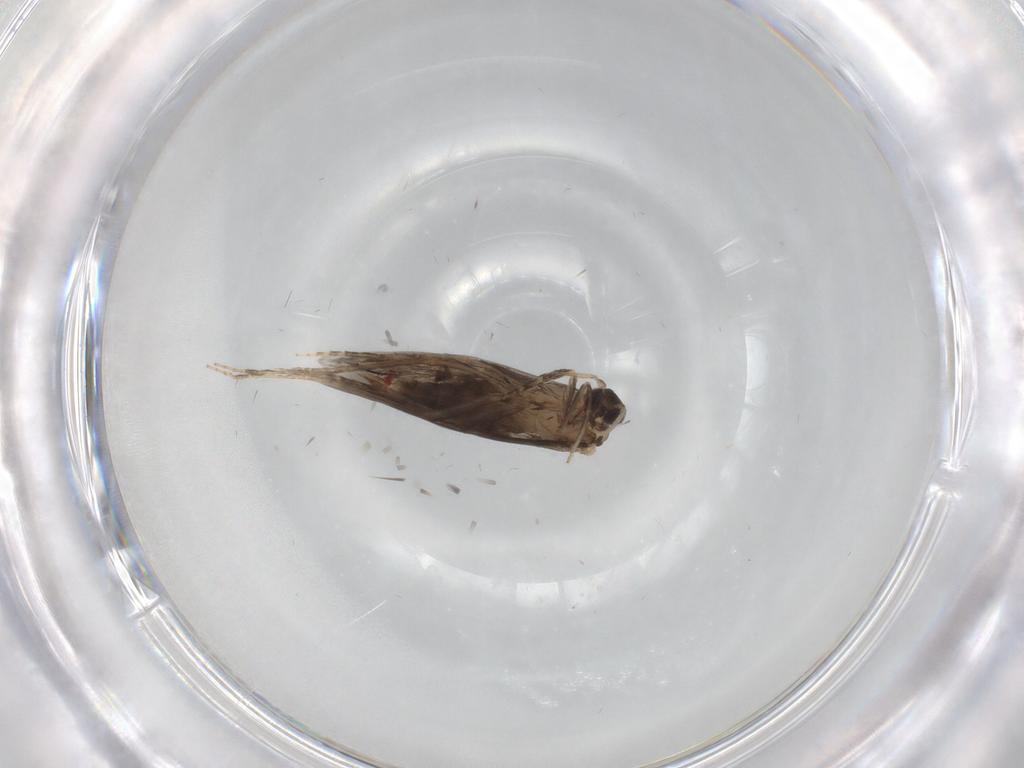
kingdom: Animalia
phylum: Arthropoda
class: Insecta
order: Trichoptera
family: Hydroptilidae
